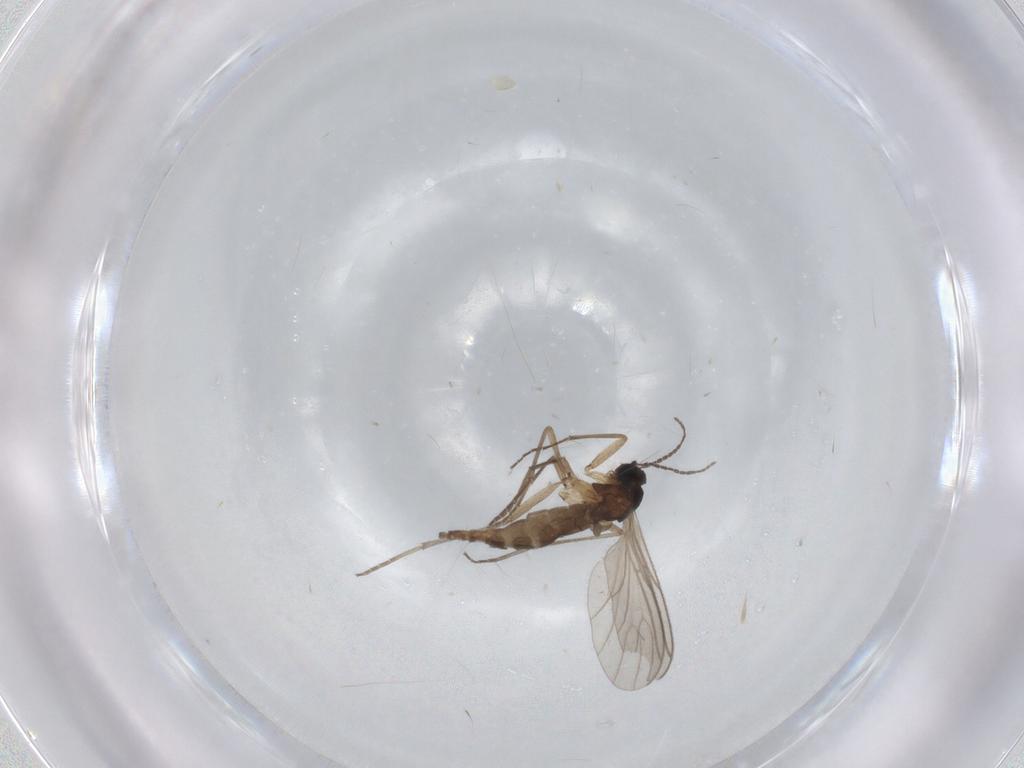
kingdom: Animalia
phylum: Arthropoda
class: Insecta
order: Diptera
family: Sciaridae
